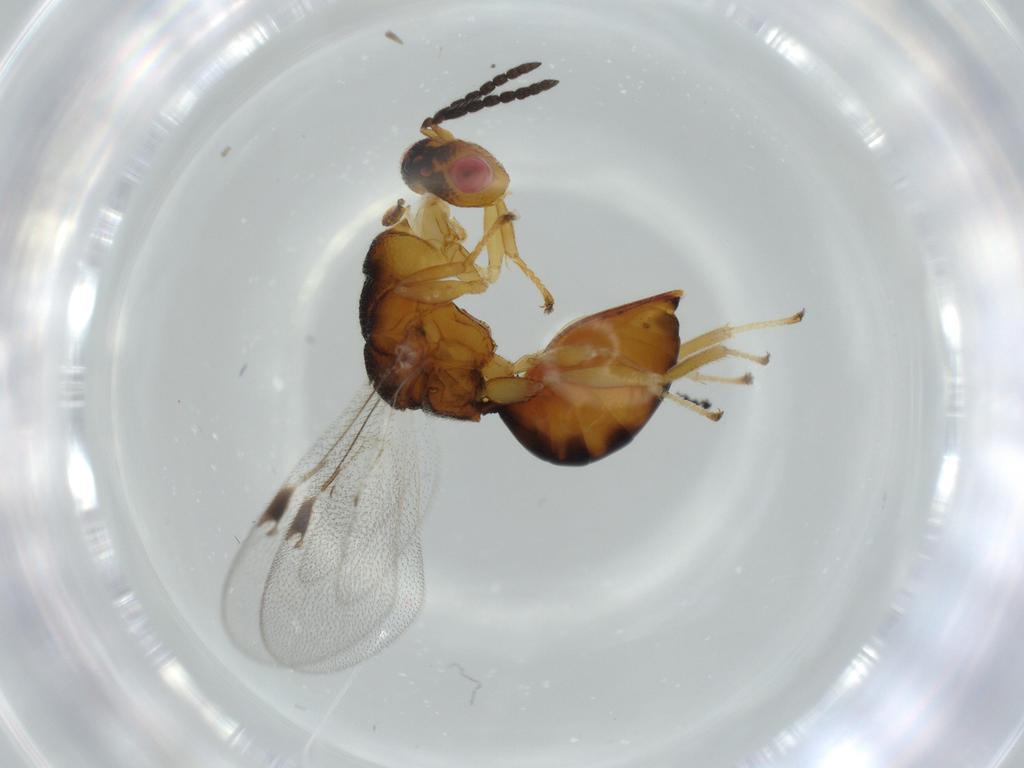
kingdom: Animalia
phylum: Arthropoda
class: Insecta
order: Hymenoptera
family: Eurytomidae
